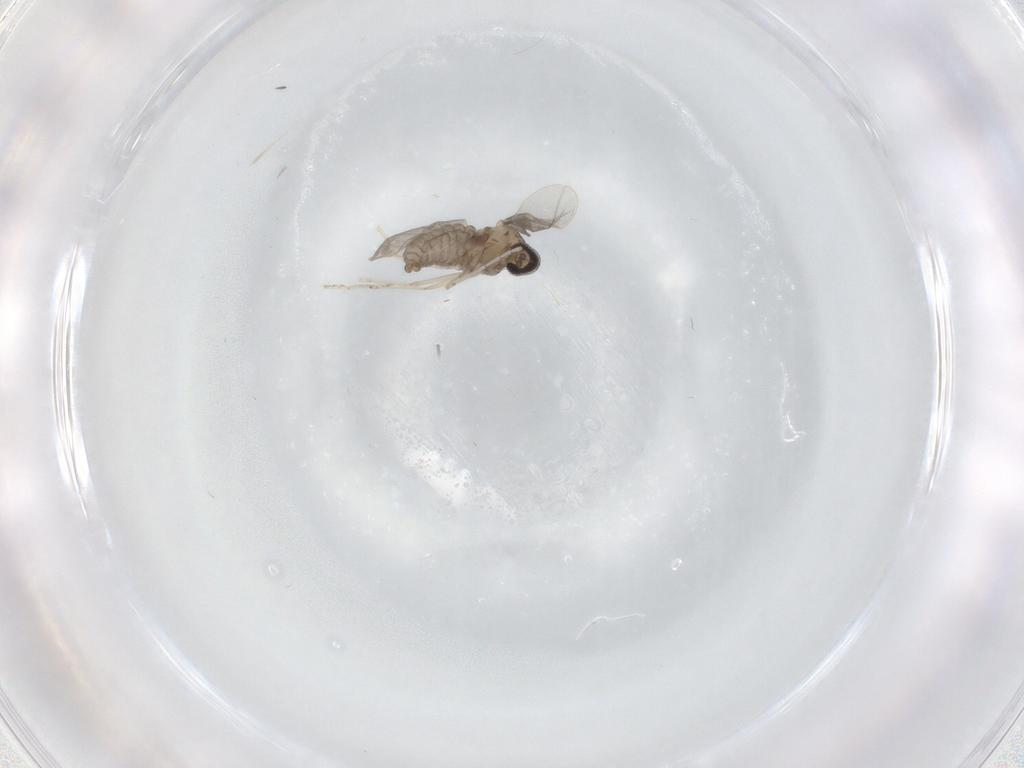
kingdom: Animalia
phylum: Arthropoda
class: Insecta
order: Diptera
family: Cecidomyiidae
